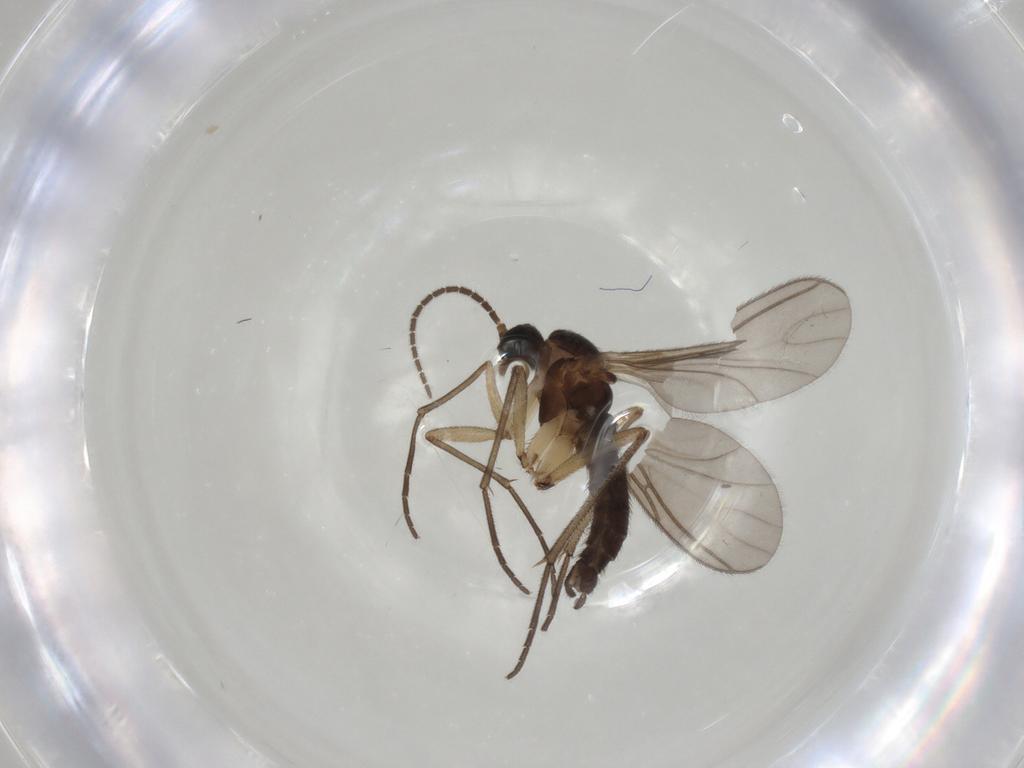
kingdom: Animalia
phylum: Arthropoda
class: Insecta
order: Diptera
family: Sciaridae
